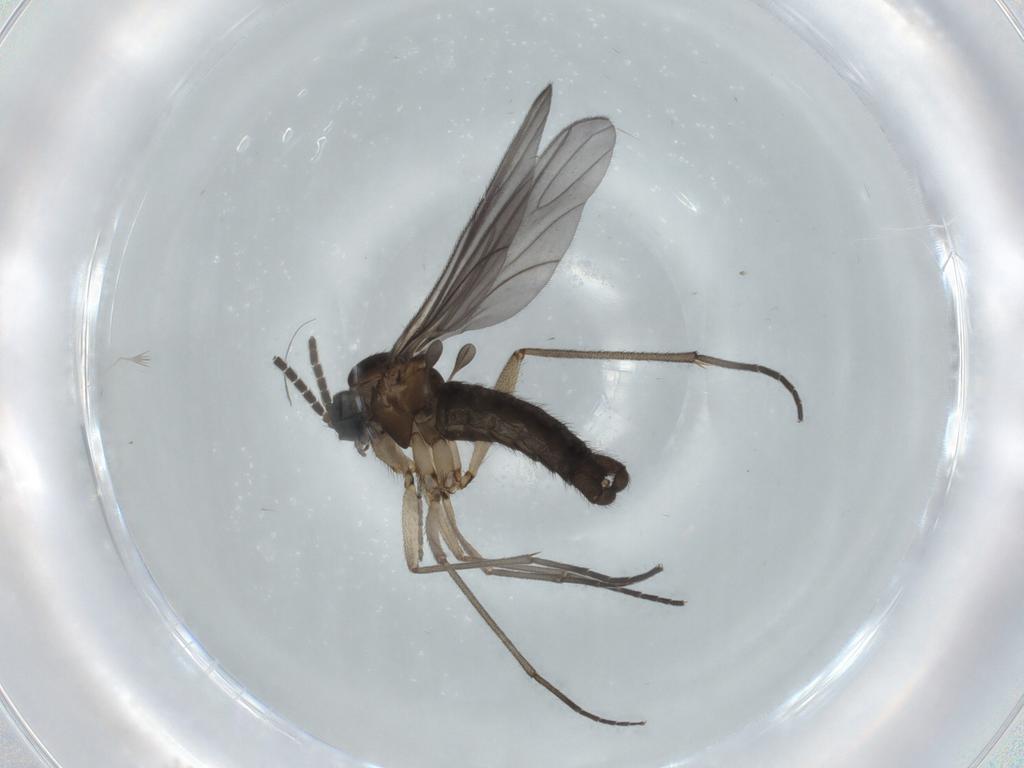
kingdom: Animalia
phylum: Arthropoda
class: Insecta
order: Diptera
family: Sciaridae
